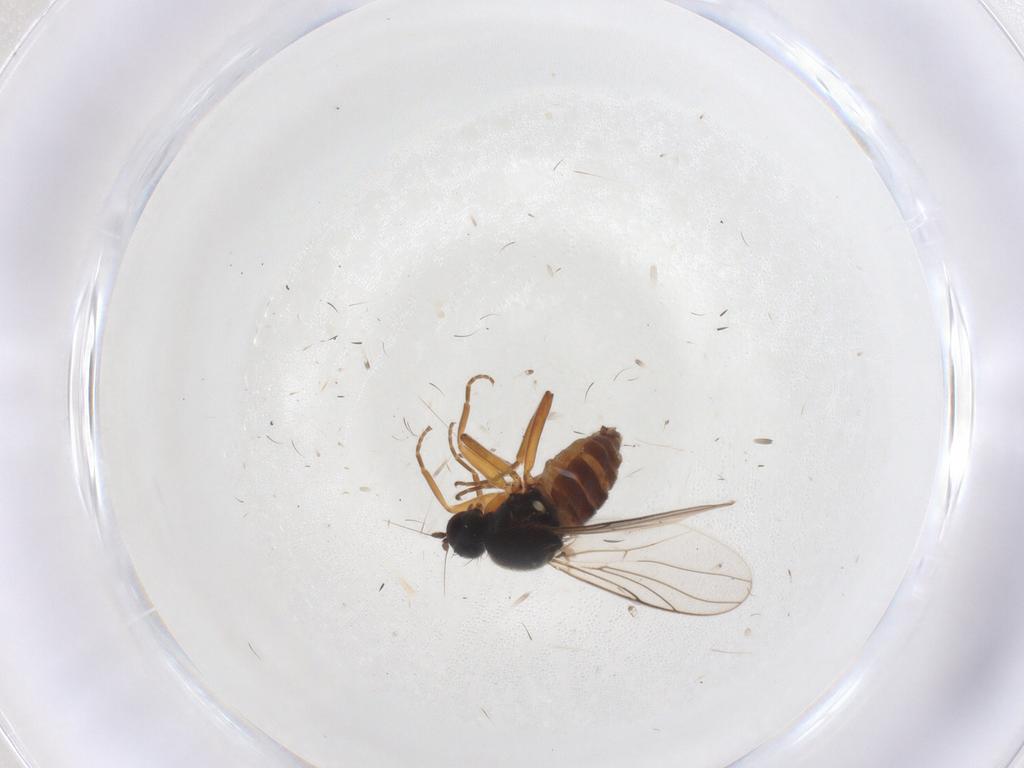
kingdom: Animalia
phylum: Arthropoda
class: Insecta
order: Diptera
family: Hybotidae
